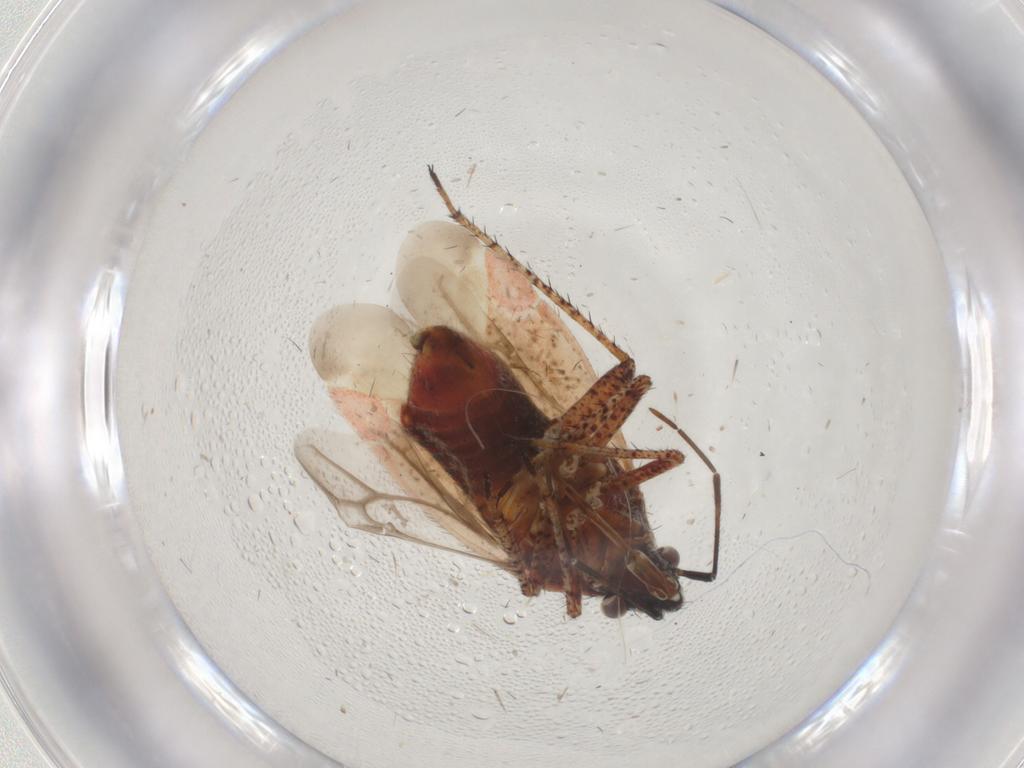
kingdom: Animalia
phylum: Arthropoda
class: Insecta
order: Hemiptera
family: Miridae
